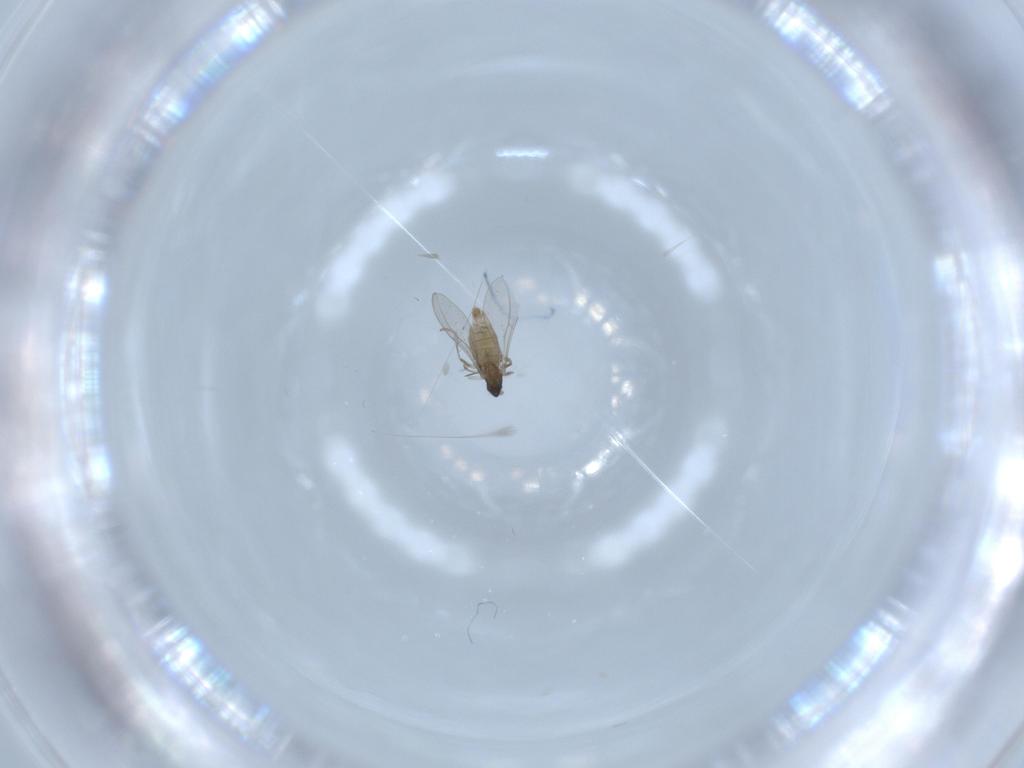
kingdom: Animalia
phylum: Arthropoda
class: Insecta
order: Diptera
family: Cecidomyiidae
